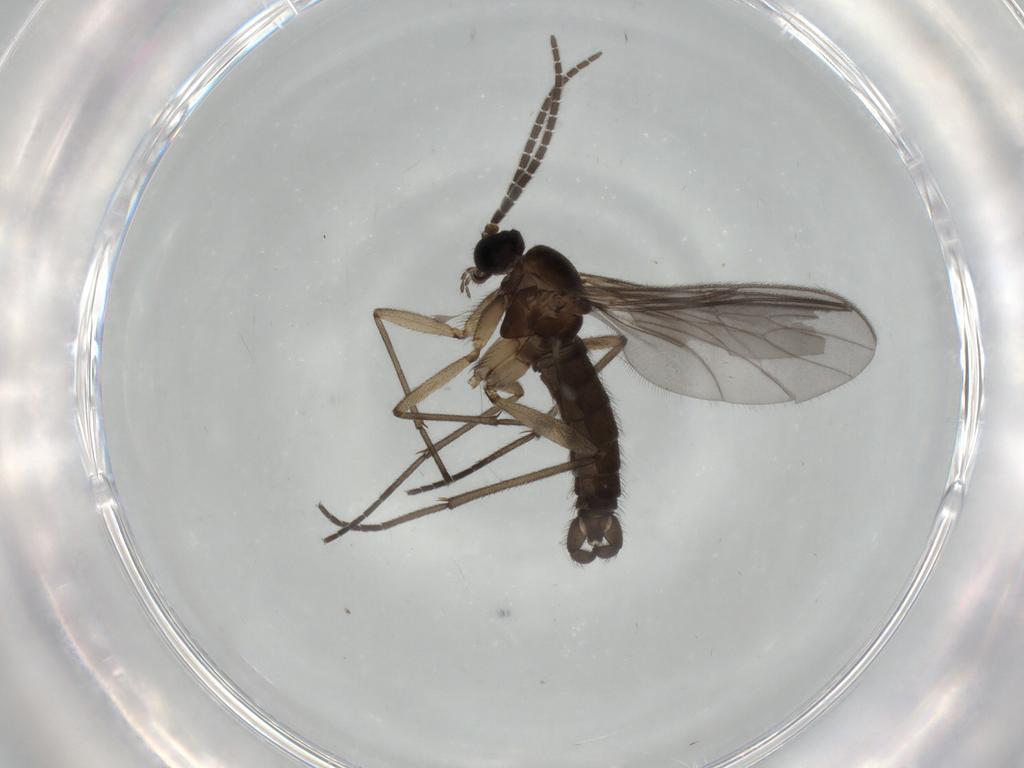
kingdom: Animalia
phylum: Arthropoda
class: Insecta
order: Diptera
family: Sciaridae
